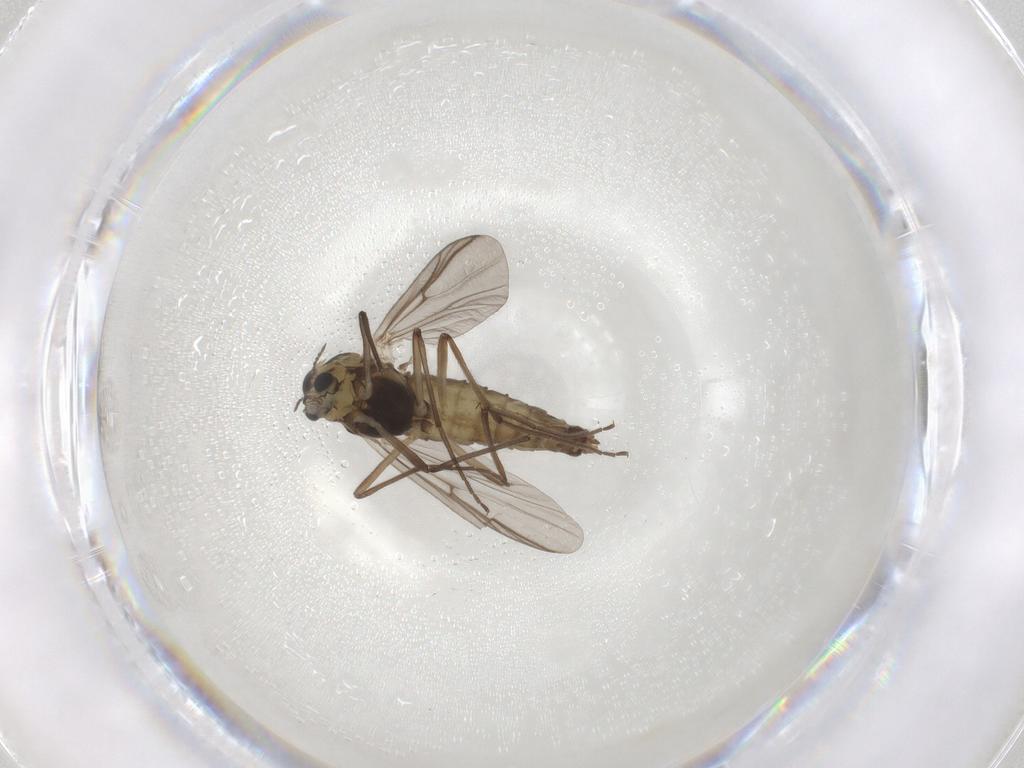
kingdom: Animalia
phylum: Arthropoda
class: Insecta
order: Diptera
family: Chironomidae
